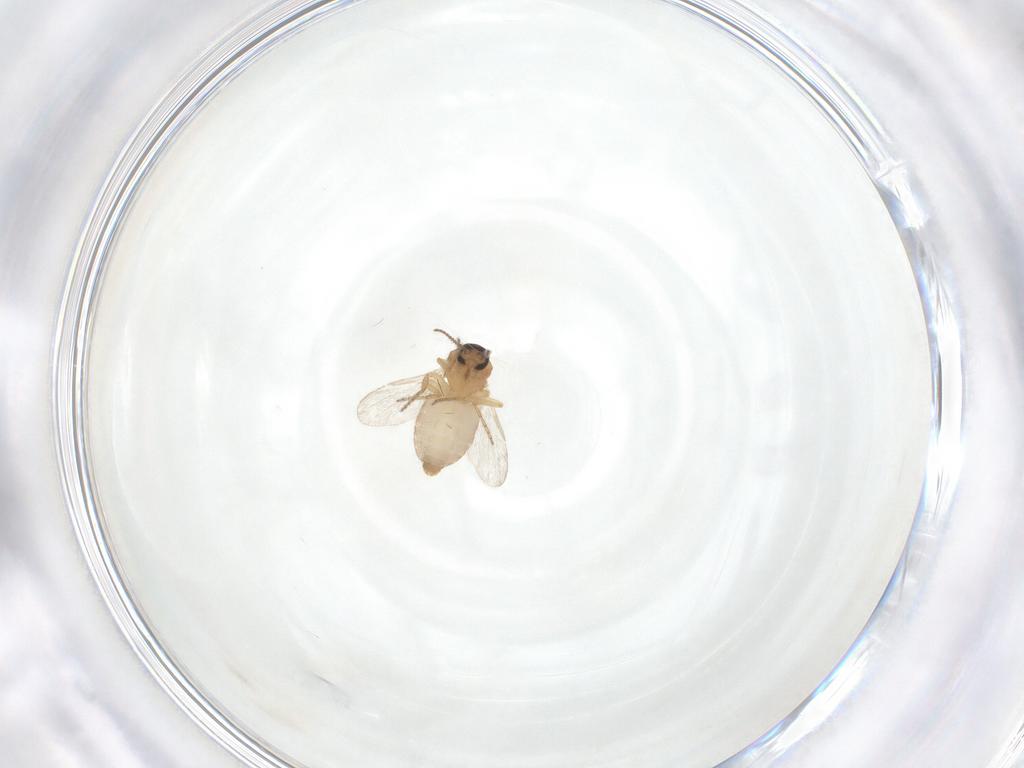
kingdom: Animalia
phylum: Arthropoda
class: Insecta
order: Diptera
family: Ceratopogonidae
